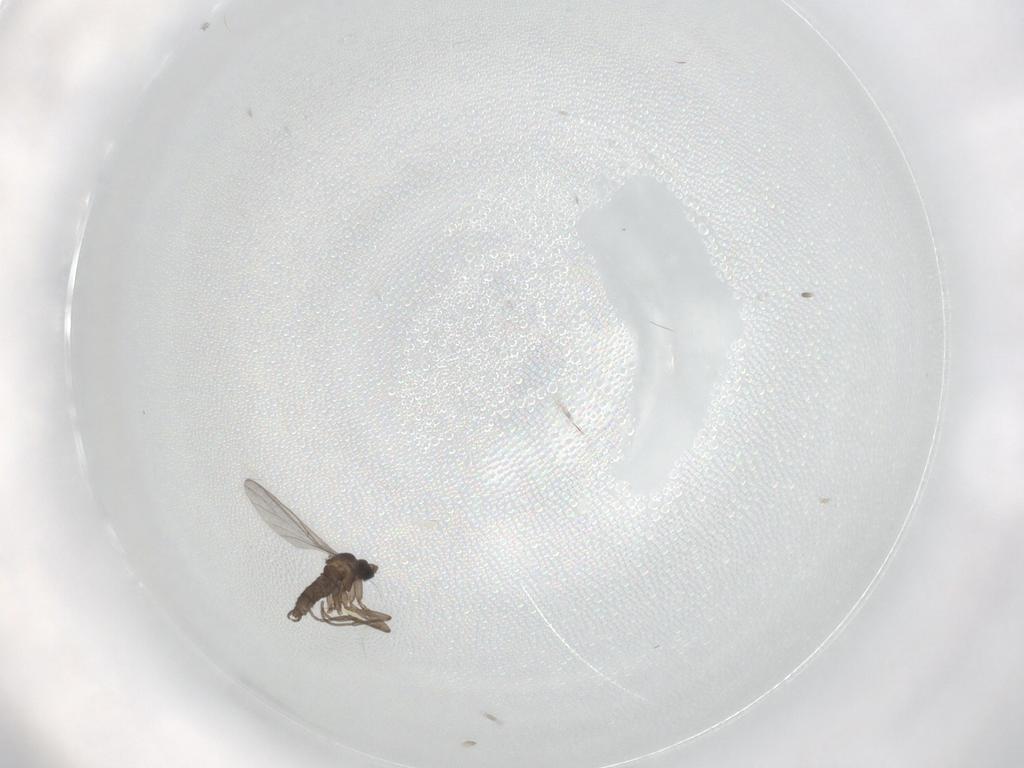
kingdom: Animalia
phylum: Arthropoda
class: Insecta
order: Diptera
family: Sciaridae
